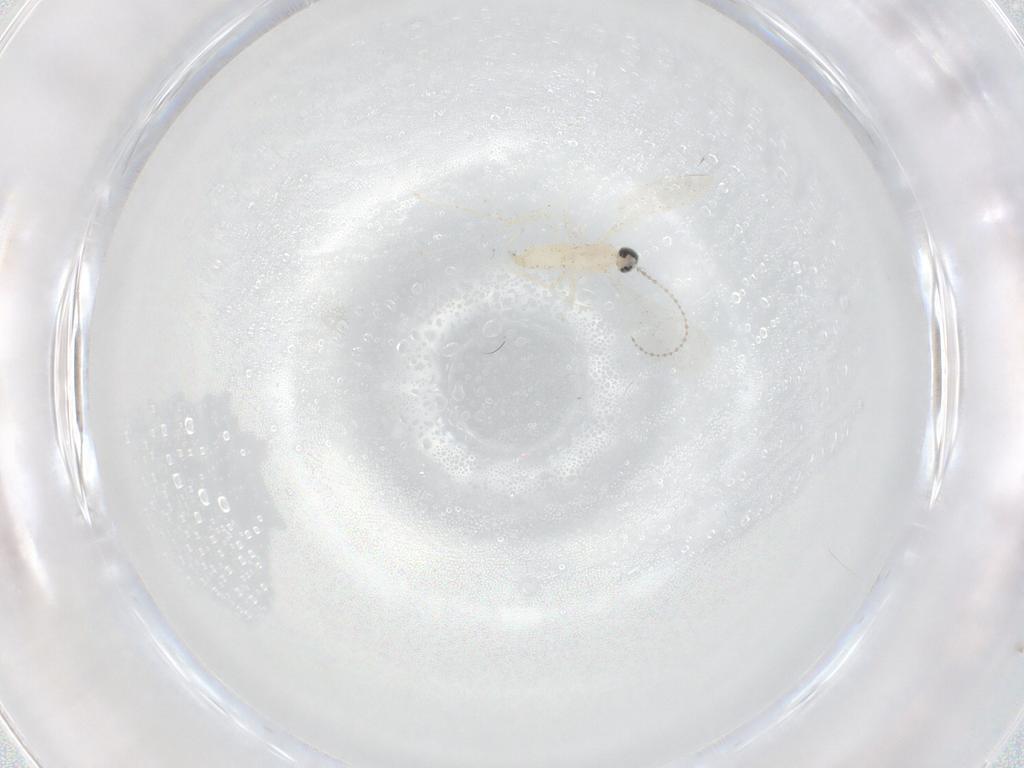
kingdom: Animalia
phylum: Arthropoda
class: Insecta
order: Diptera
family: Cecidomyiidae
